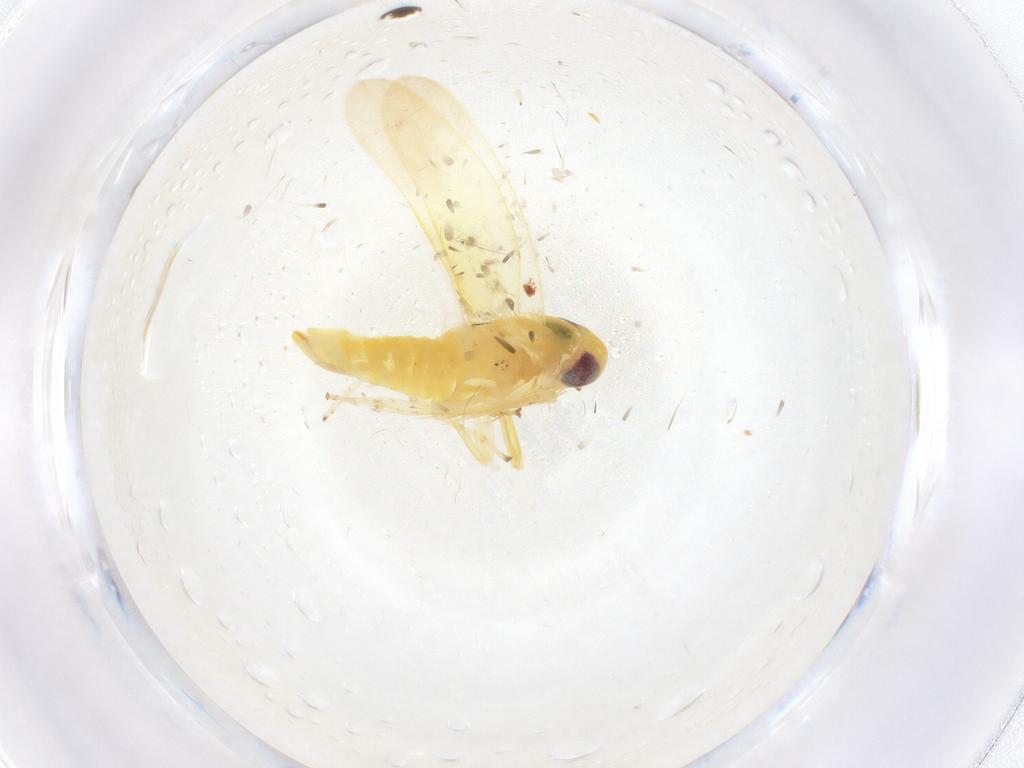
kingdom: Animalia
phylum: Arthropoda
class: Insecta
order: Hemiptera
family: Cicadellidae
